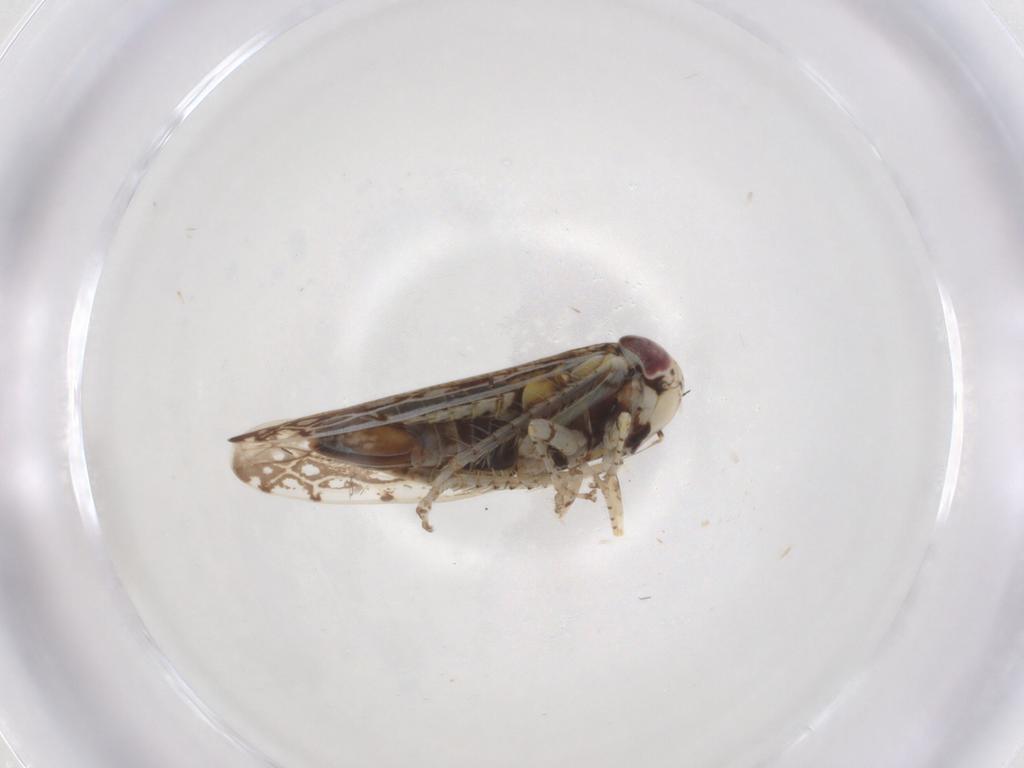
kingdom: Animalia
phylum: Arthropoda
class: Insecta
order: Hemiptera
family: Cicadellidae
